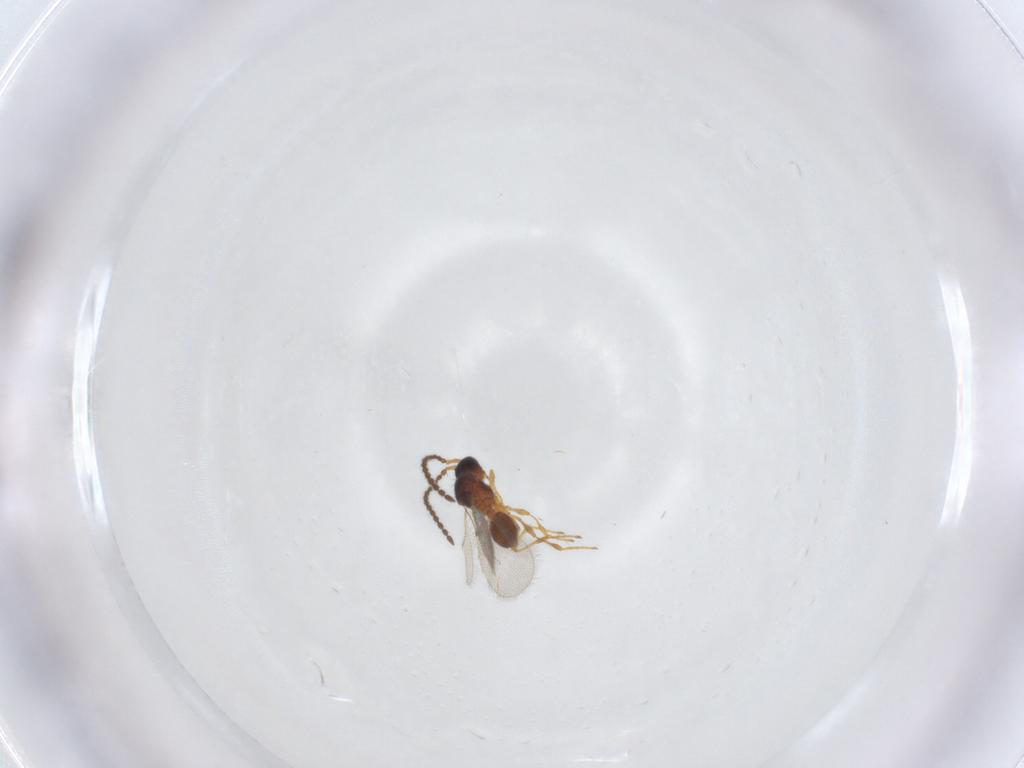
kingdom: Animalia
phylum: Arthropoda
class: Insecta
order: Hymenoptera
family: Diapriidae
